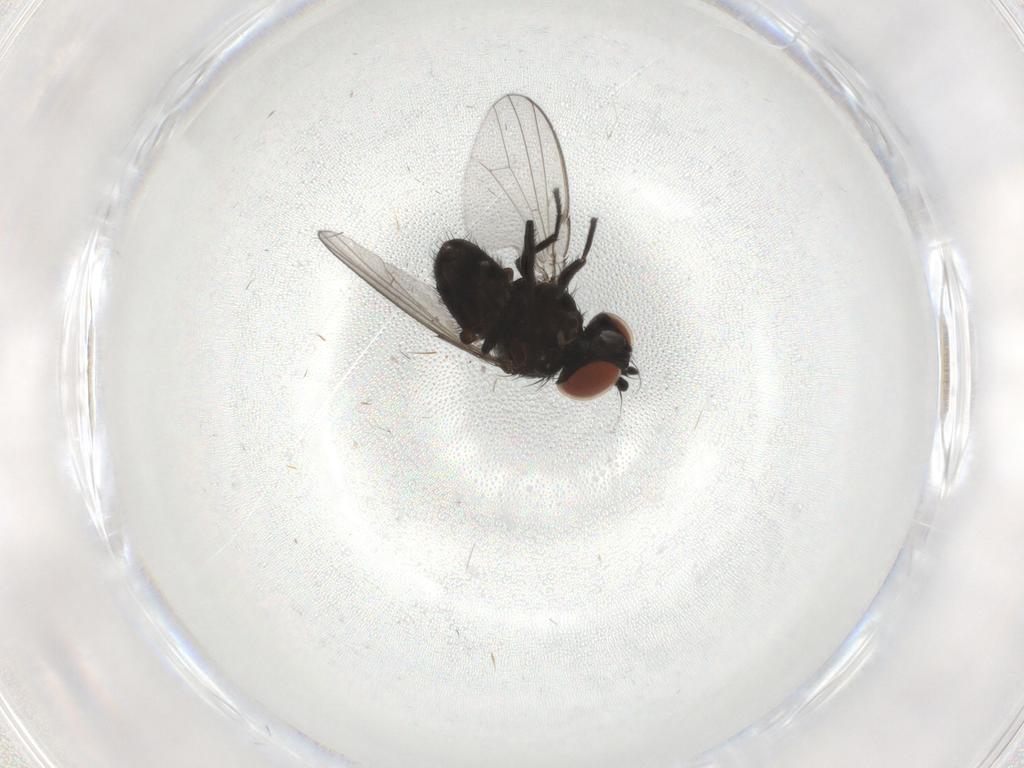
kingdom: Animalia
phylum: Arthropoda
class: Insecta
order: Diptera
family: Milichiidae
